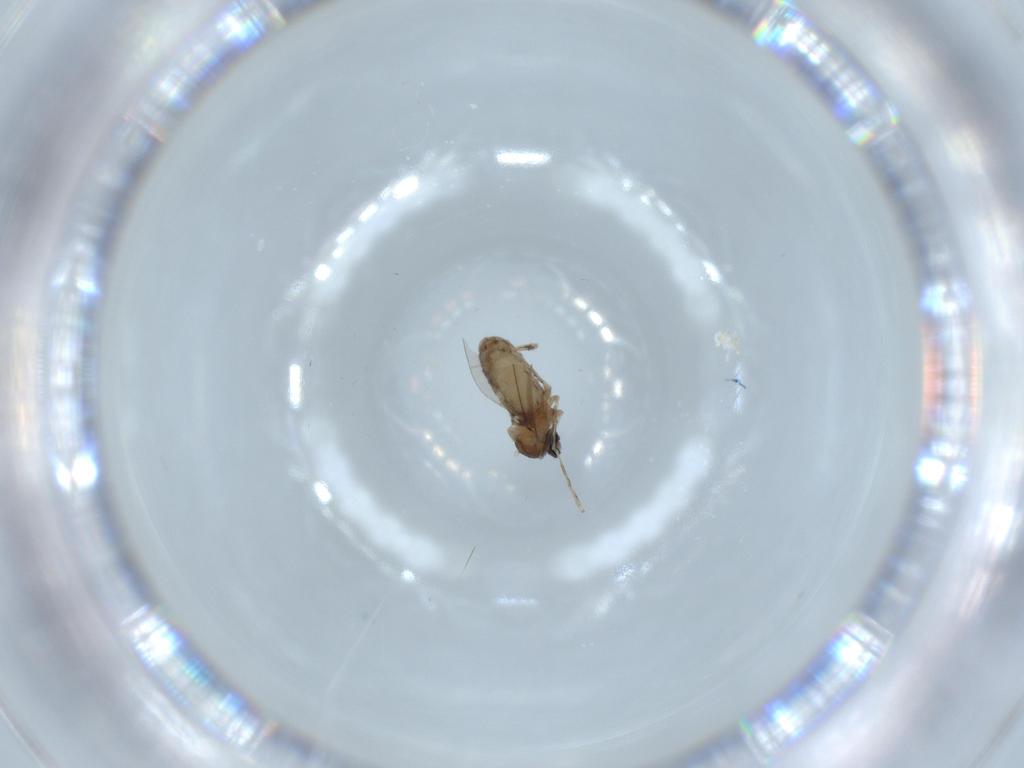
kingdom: Animalia
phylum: Arthropoda
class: Insecta
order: Diptera
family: Cecidomyiidae
